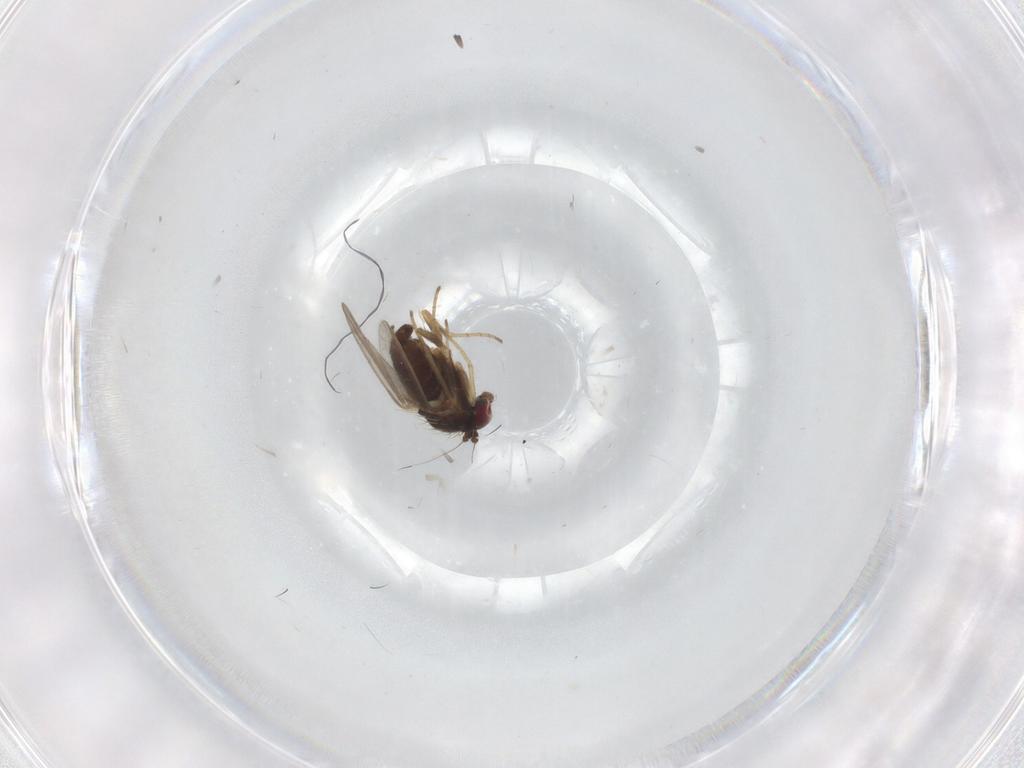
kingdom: Animalia
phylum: Arthropoda
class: Insecta
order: Diptera
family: Dolichopodidae
